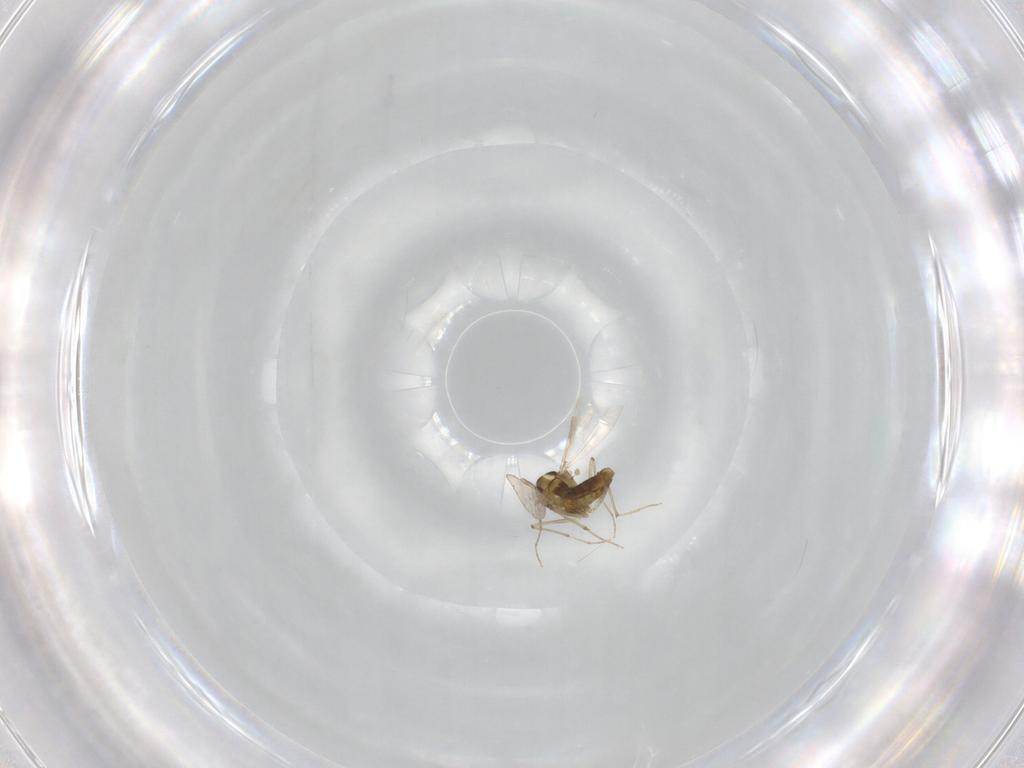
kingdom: Animalia
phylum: Arthropoda
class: Insecta
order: Diptera
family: Chironomidae
